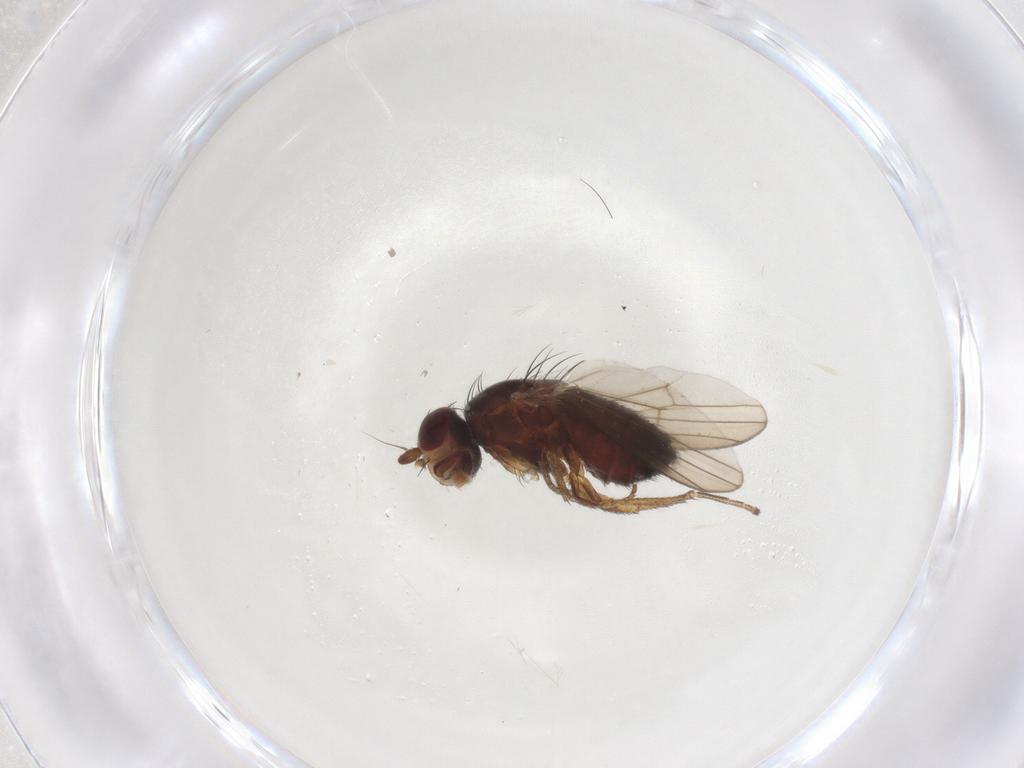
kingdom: Animalia
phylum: Arthropoda
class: Insecta
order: Diptera
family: Heleomyzidae
